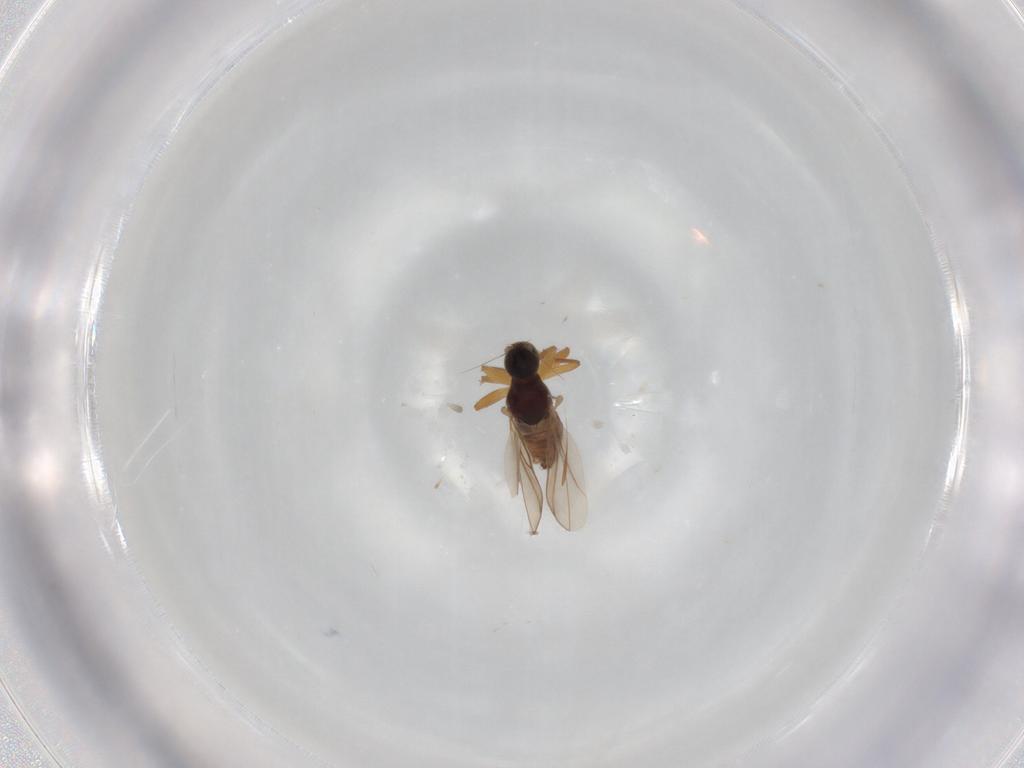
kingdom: Animalia
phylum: Arthropoda
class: Insecta
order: Diptera
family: Hybotidae
